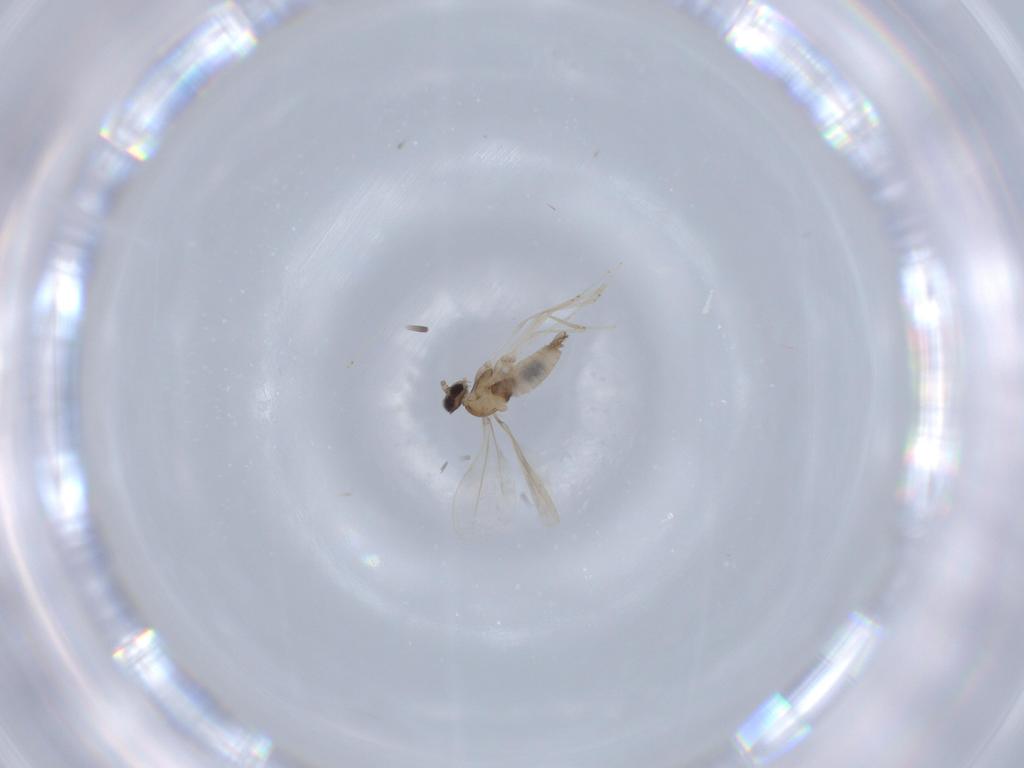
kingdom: Animalia
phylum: Arthropoda
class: Insecta
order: Diptera
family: Cecidomyiidae
